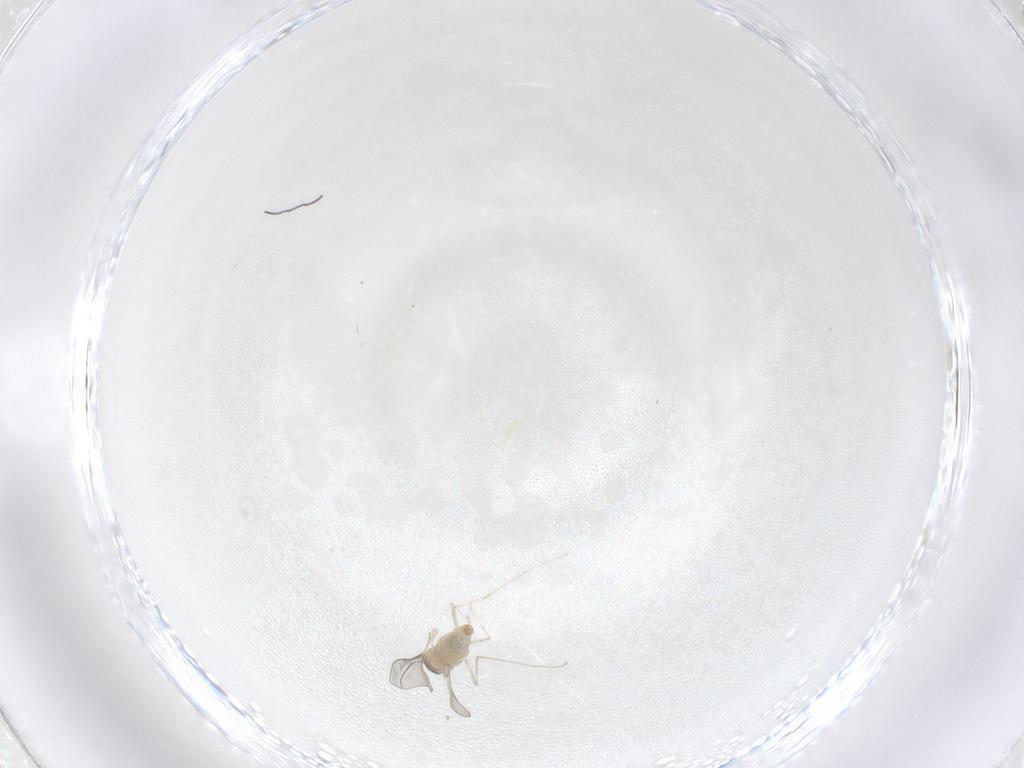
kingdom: Animalia
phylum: Arthropoda
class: Insecta
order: Diptera
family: Cecidomyiidae
